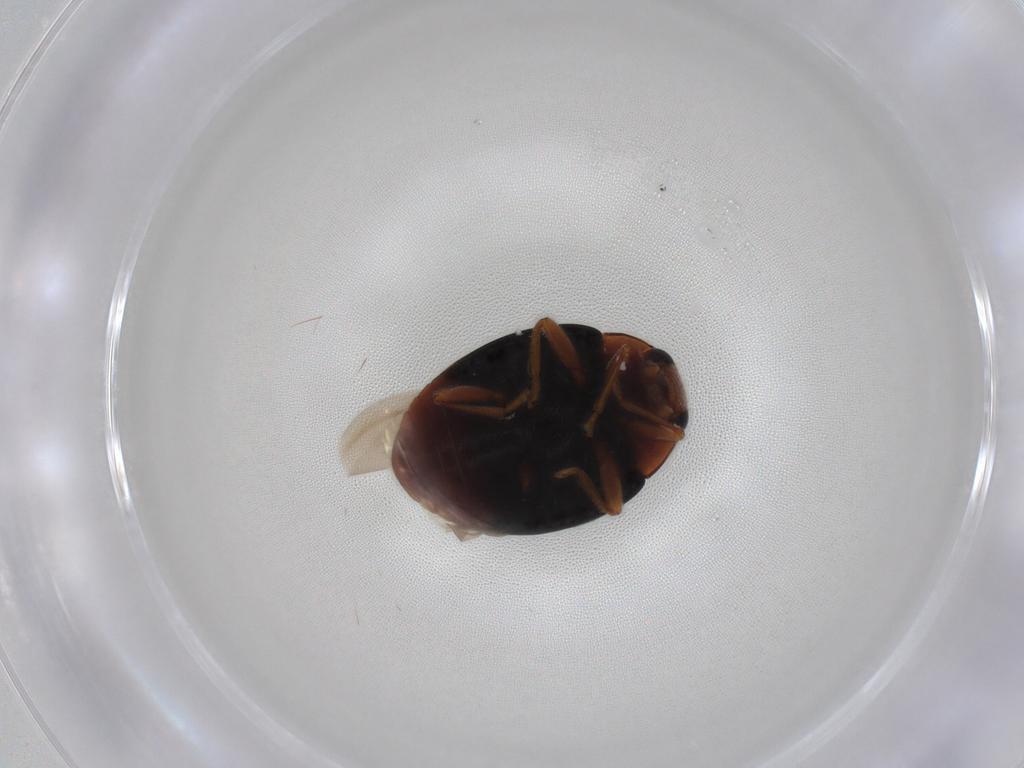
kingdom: Animalia
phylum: Arthropoda
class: Insecta
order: Coleoptera
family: Coccinellidae
